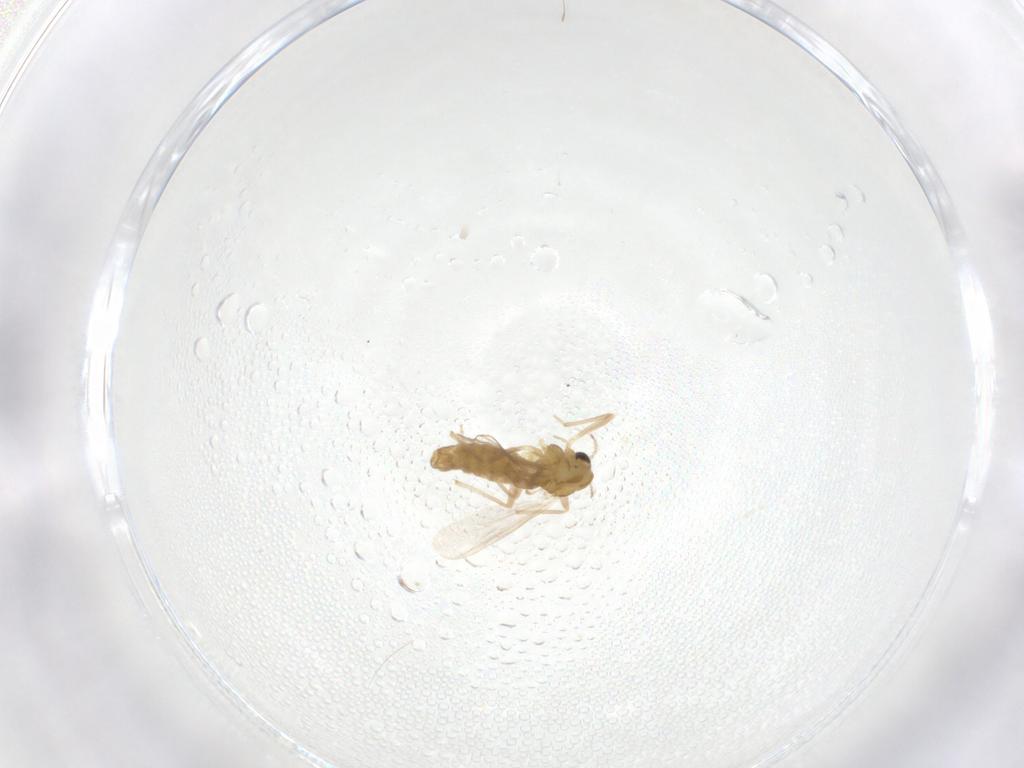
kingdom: Animalia
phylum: Arthropoda
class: Insecta
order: Diptera
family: Chironomidae
